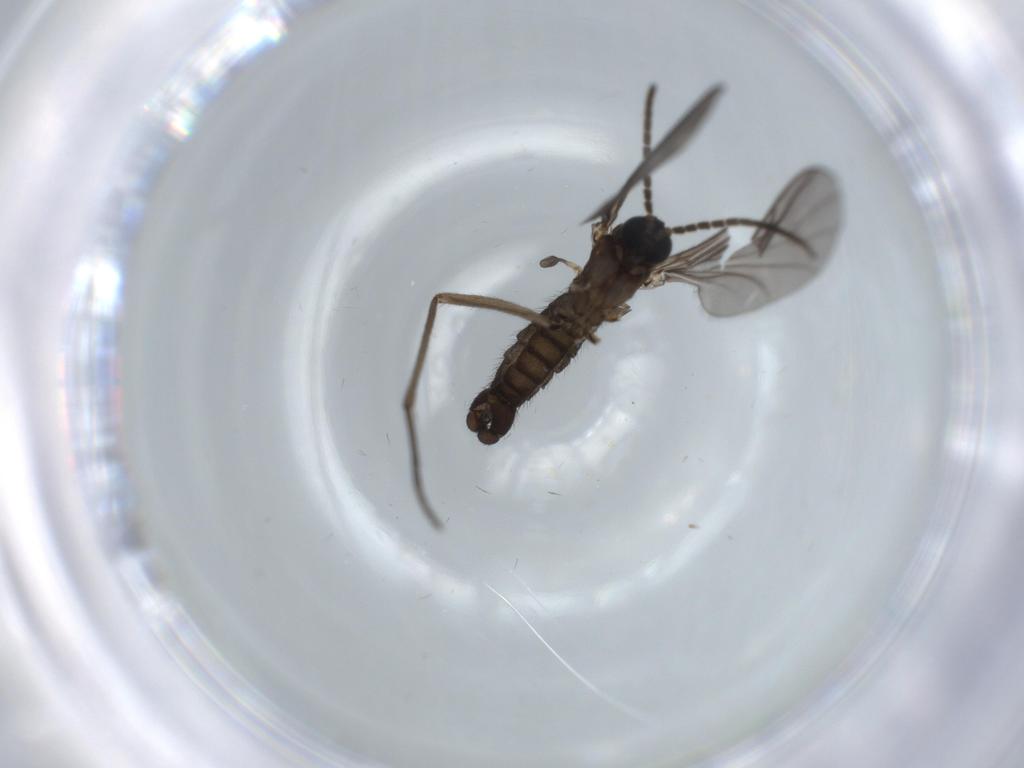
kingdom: Animalia
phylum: Arthropoda
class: Insecta
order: Diptera
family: Sciaridae
